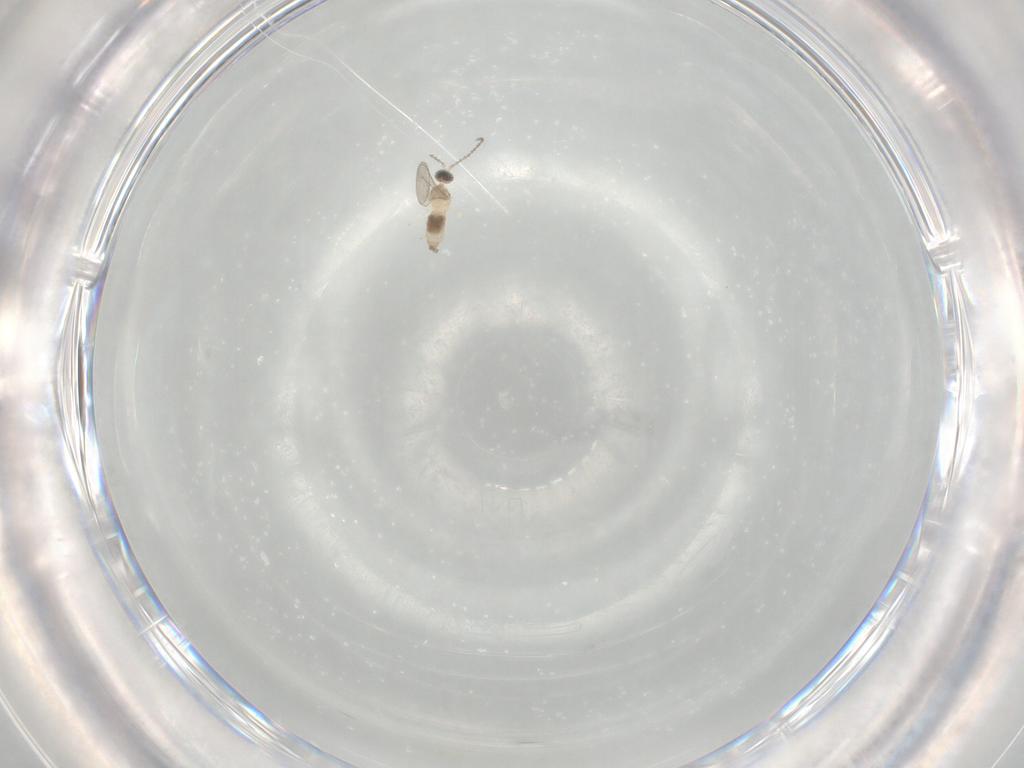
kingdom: Animalia
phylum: Arthropoda
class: Insecta
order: Diptera
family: Cecidomyiidae
